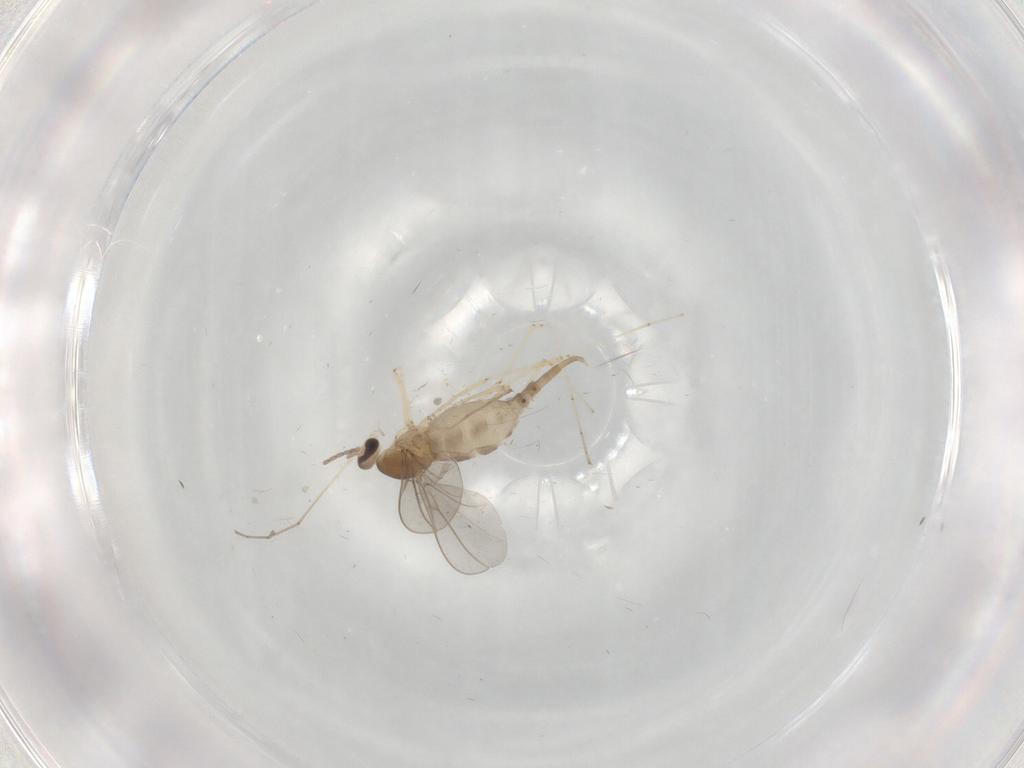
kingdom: Animalia
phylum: Arthropoda
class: Insecta
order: Diptera
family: Cecidomyiidae
